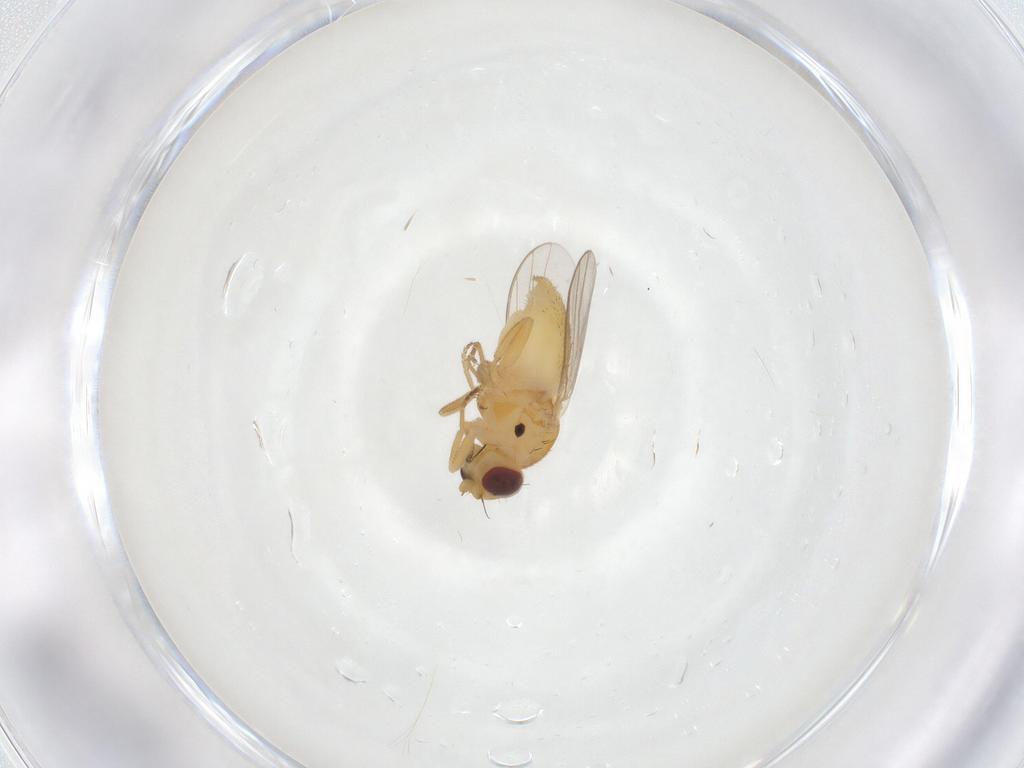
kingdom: Animalia
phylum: Arthropoda
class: Insecta
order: Diptera
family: Chloropidae
